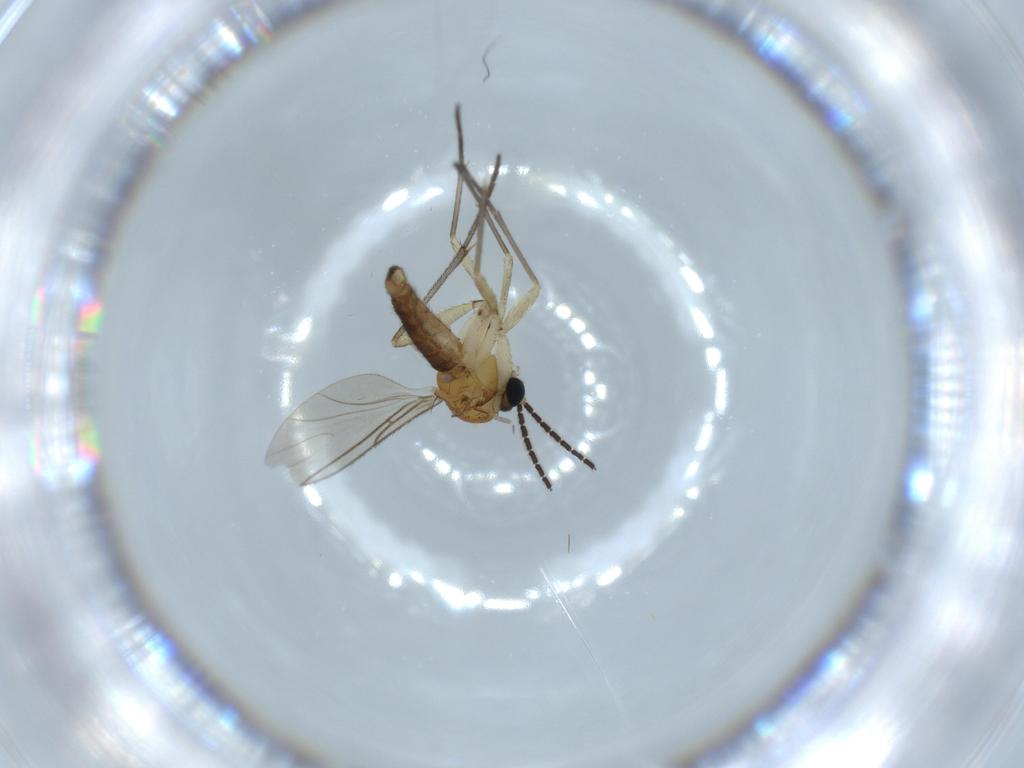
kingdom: Animalia
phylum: Arthropoda
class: Insecta
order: Diptera
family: Sciaridae
